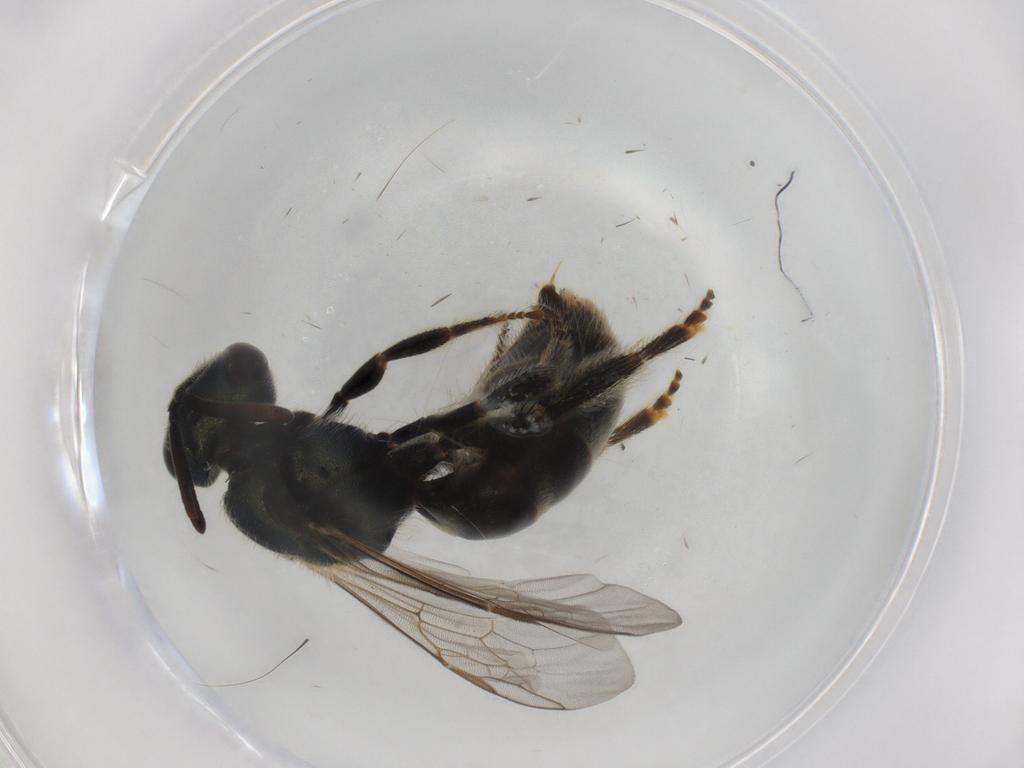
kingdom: Animalia
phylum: Arthropoda
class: Insecta
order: Hymenoptera
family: Halictidae
